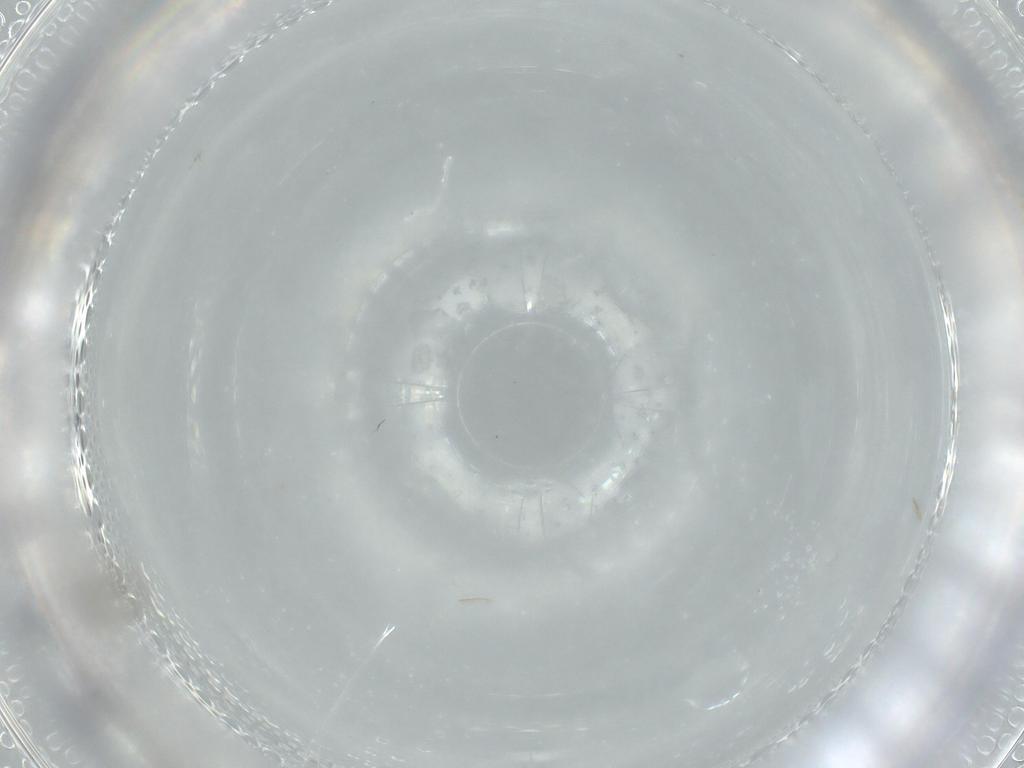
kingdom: Animalia
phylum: Arthropoda
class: Insecta
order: Diptera
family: Cecidomyiidae
